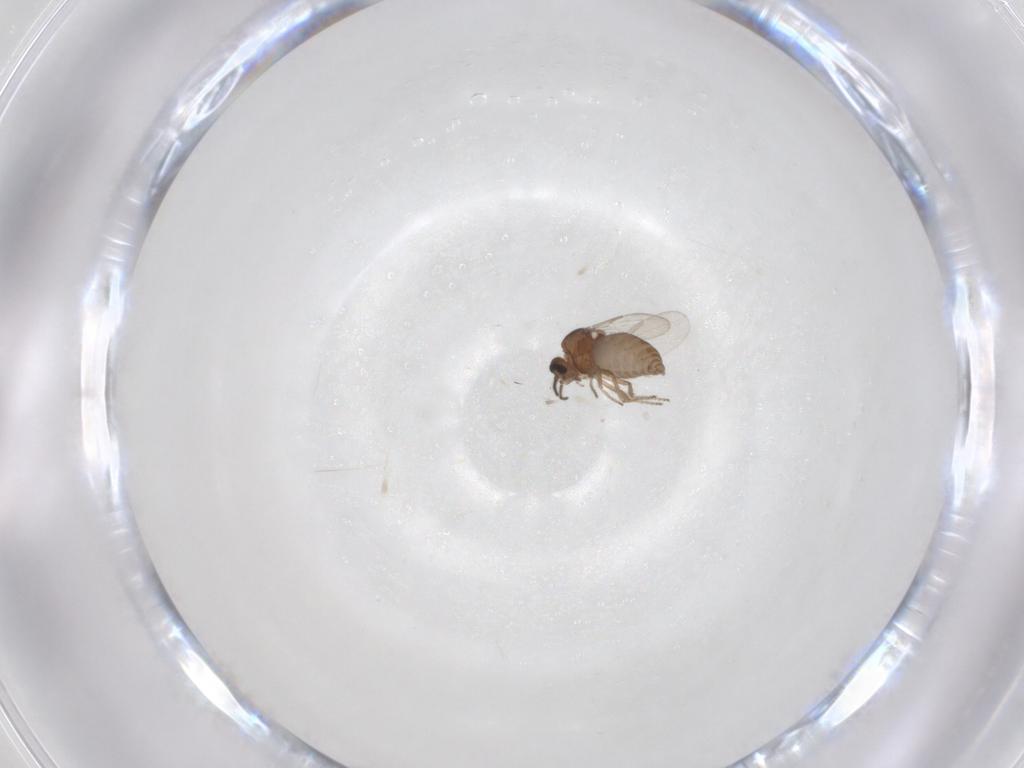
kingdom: Animalia
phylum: Arthropoda
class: Insecta
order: Diptera
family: Ceratopogonidae
